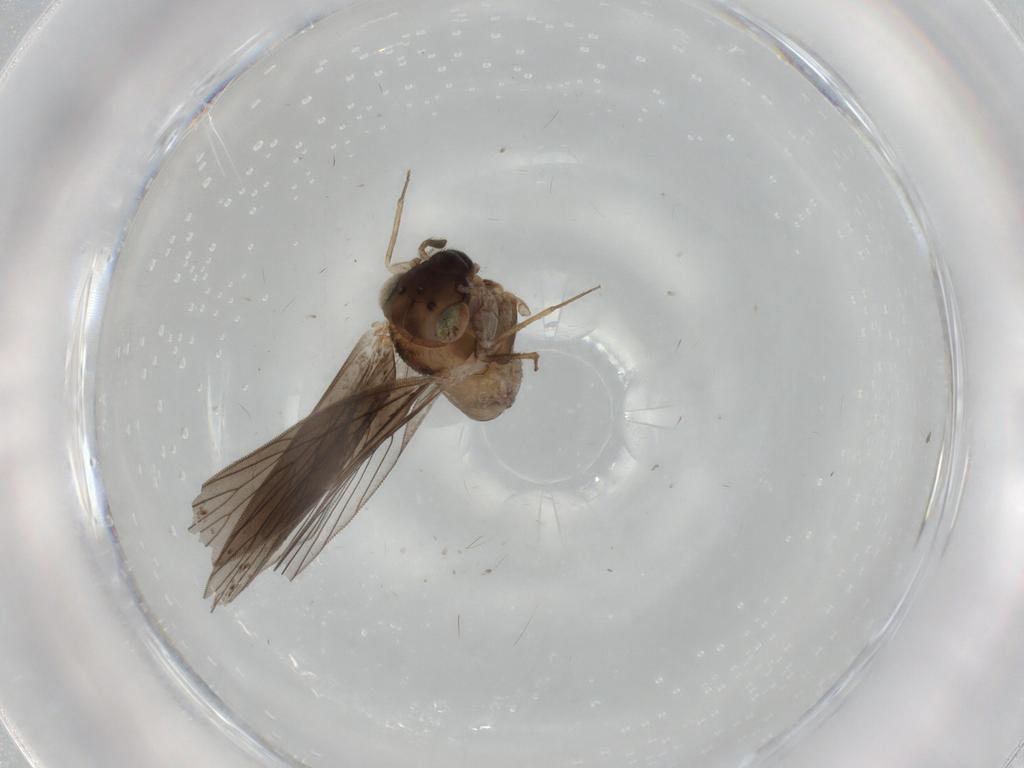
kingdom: Animalia
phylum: Arthropoda
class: Insecta
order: Psocodea
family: Lepidopsocidae
